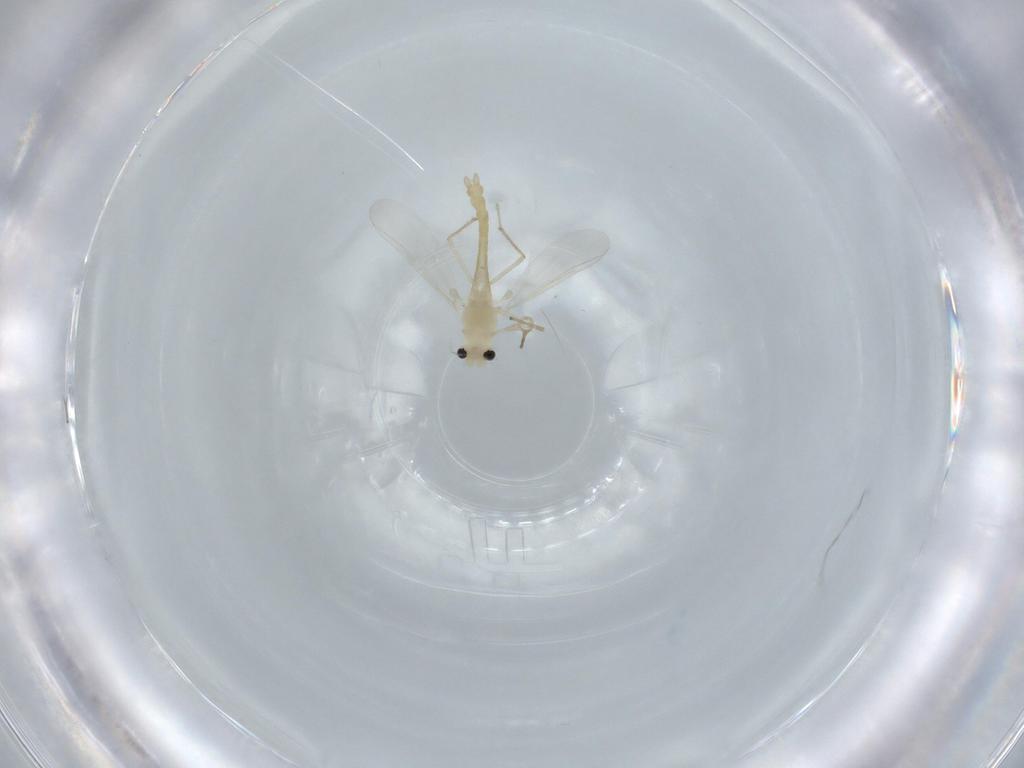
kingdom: Animalia
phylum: Arthropoda
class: Insecta
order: Diptera
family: Chironomidae
